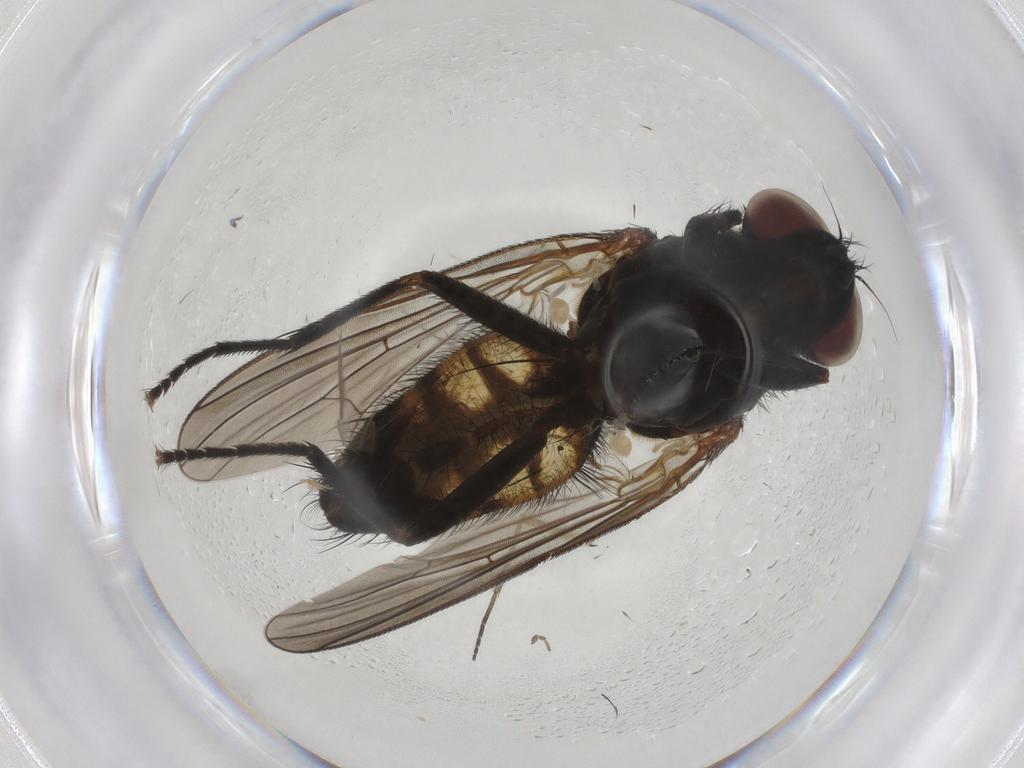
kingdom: Animalia
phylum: Arthropoda
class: Insecta
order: Diptera
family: Fannia
